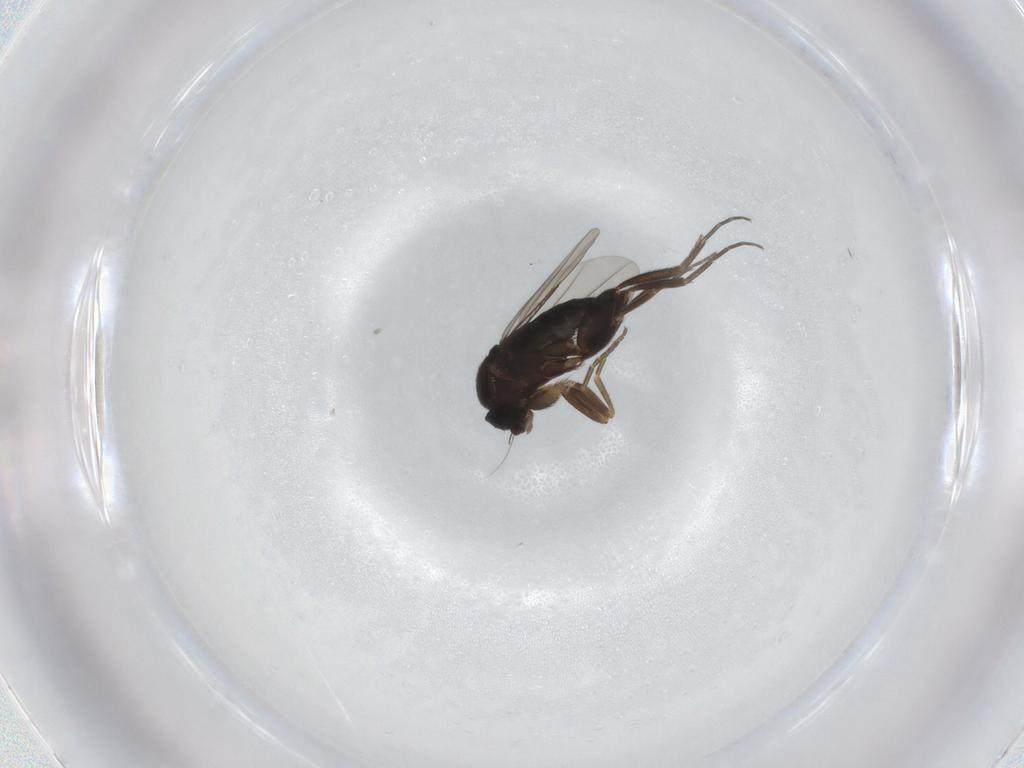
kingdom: Animalia
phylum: Arthropoda
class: Insecta
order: Diptera
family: Phoridae
